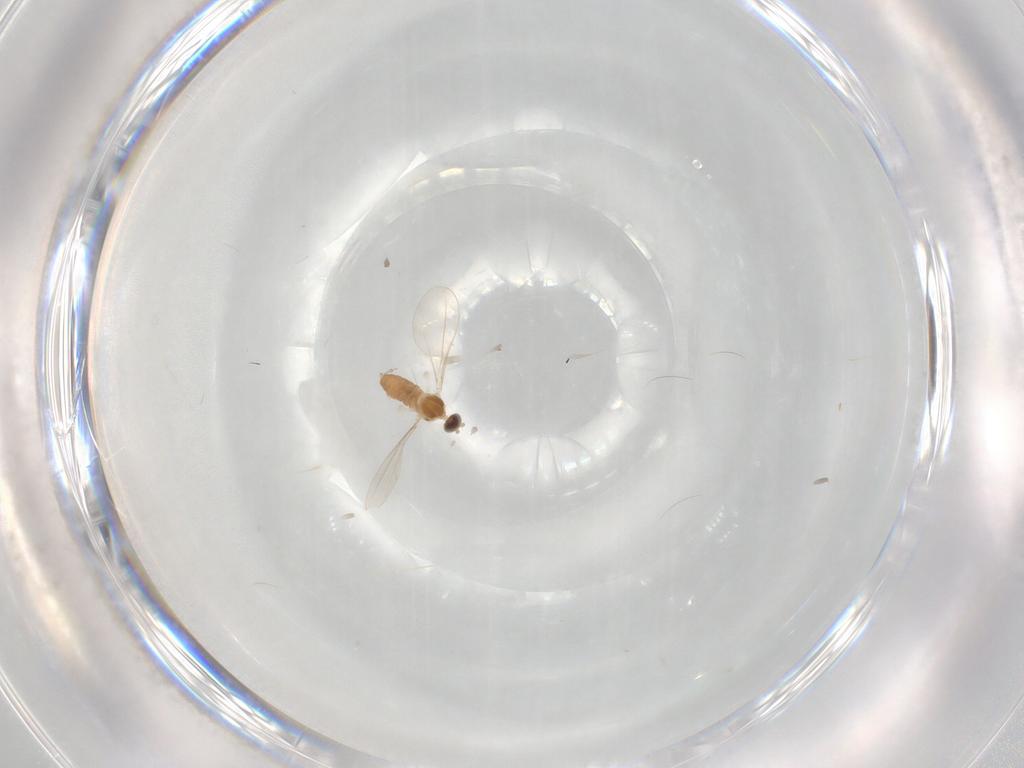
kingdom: Animalia
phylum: Arthropoda
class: Insecta
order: Diptera
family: Cecidomyiidae
